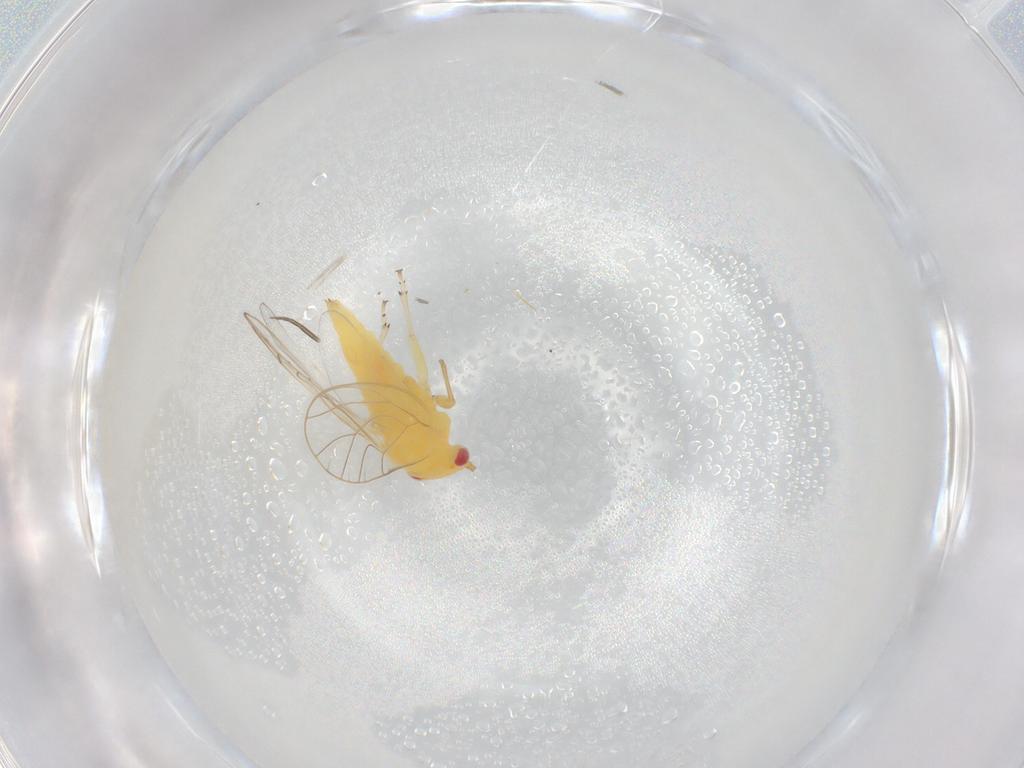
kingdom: Animalia
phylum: Arthropoda
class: Insecta
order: Hemiptera
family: Psyllidae
